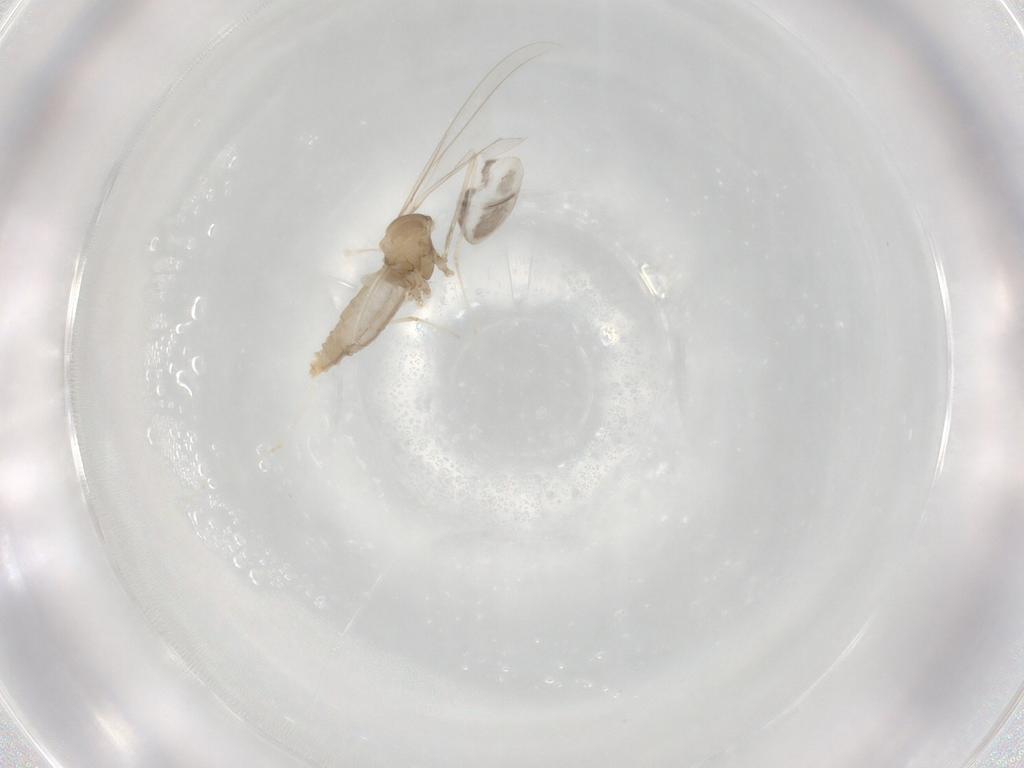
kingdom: Animalia
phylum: Arthropoda
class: Insecta
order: Diptera
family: Cecidomyiidae
